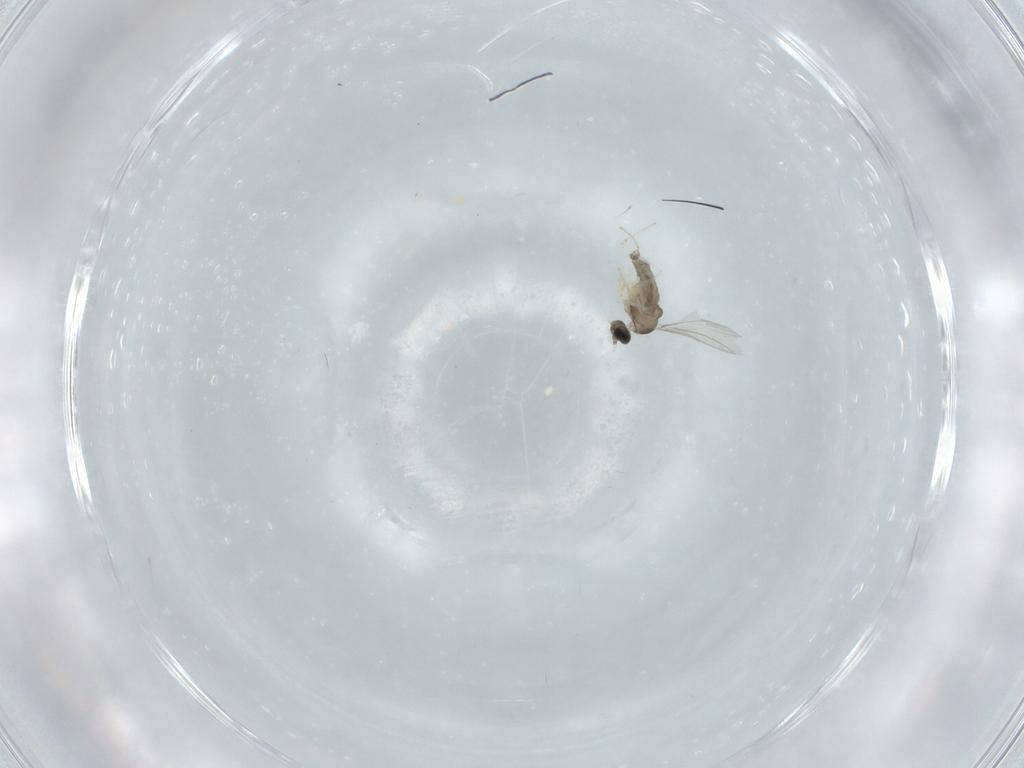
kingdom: Animalia
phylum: Arthropoda
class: Insecta
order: Diptera
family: Cecidomyiidae
